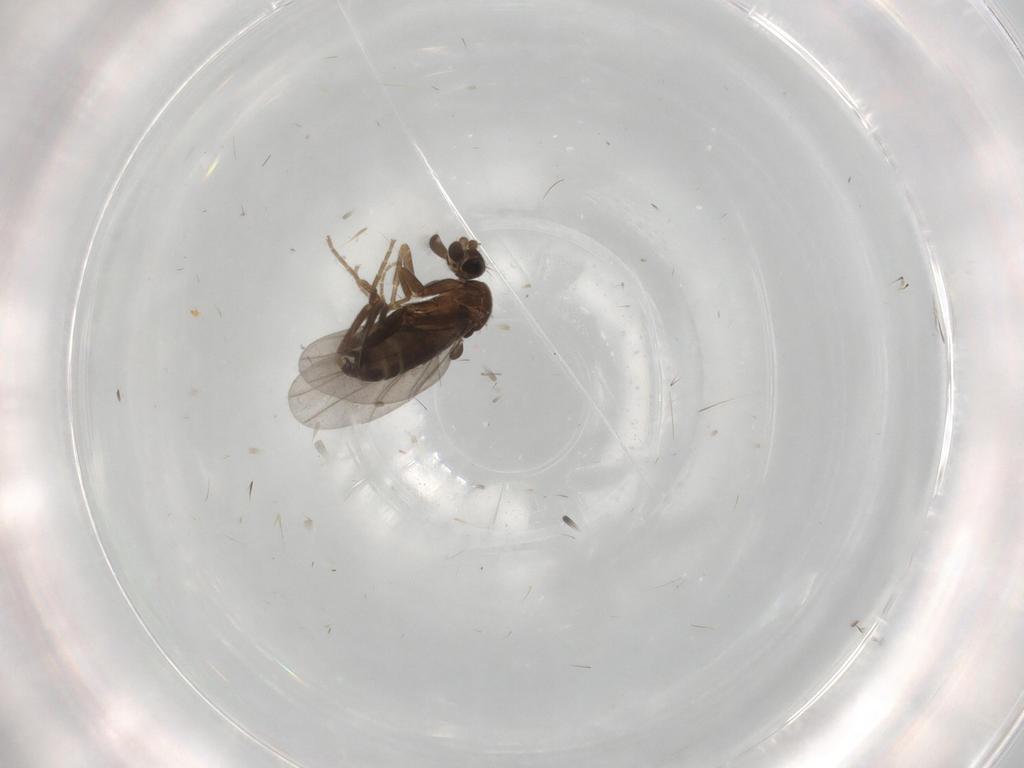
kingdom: Animalia
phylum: Arthropoda
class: Insecta
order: Diptera
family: Phoridae
